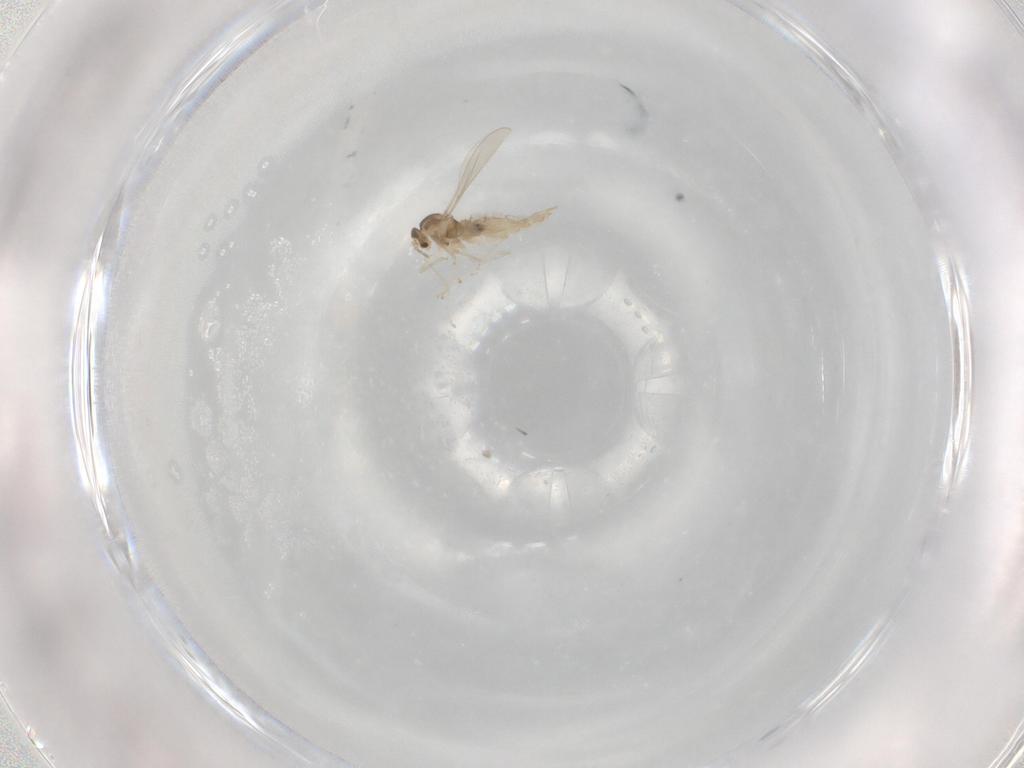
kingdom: Animalia
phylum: Arthropoda
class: Insecta
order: Diptera
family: Cecidomyiidae
